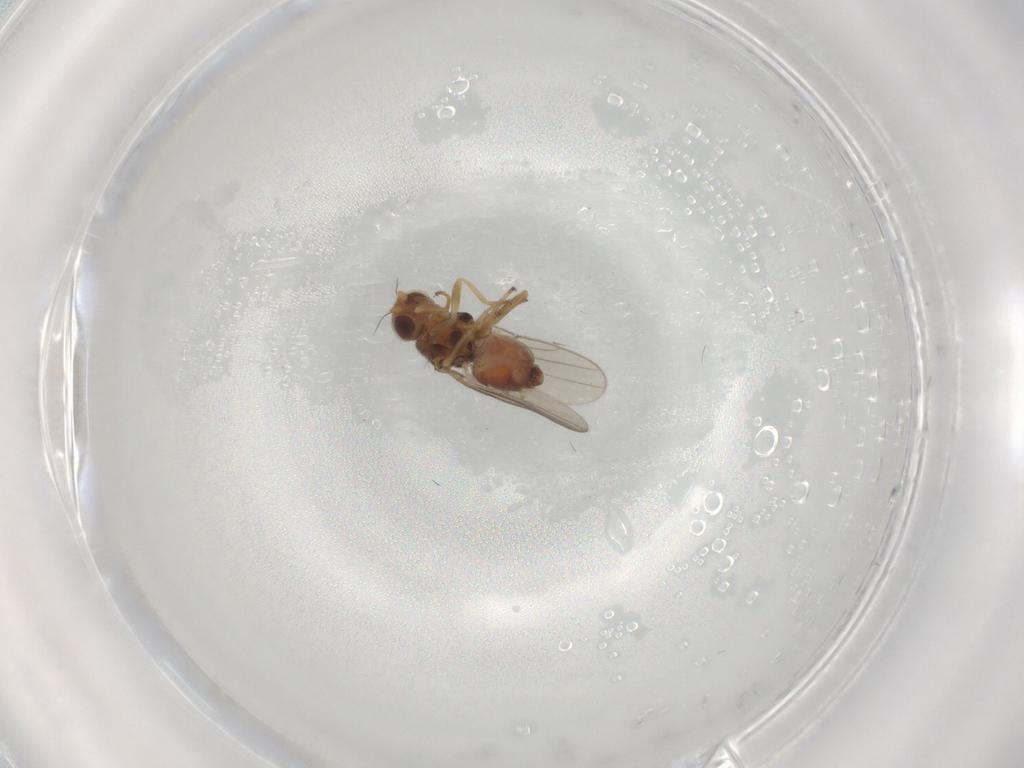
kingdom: Animalia
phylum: Arthropoda
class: Insecta
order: Diptera
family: Chloropidae
